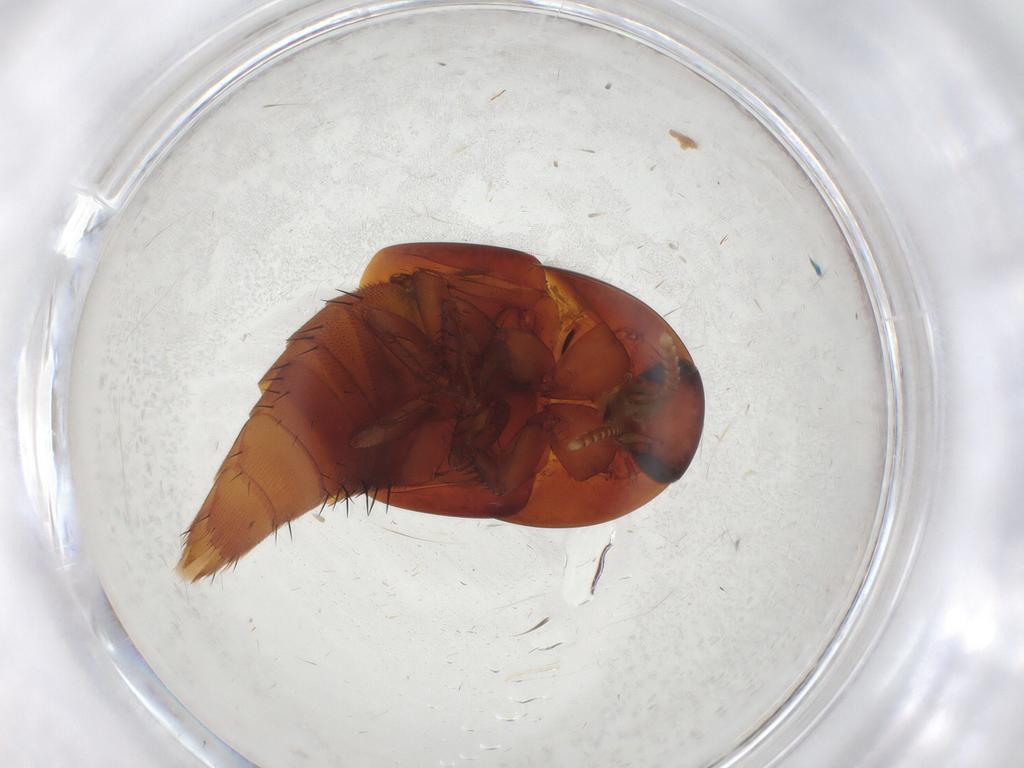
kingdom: Animalia
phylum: Arthropoda
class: Insecta
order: Coleoptera
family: Staphylinidae
